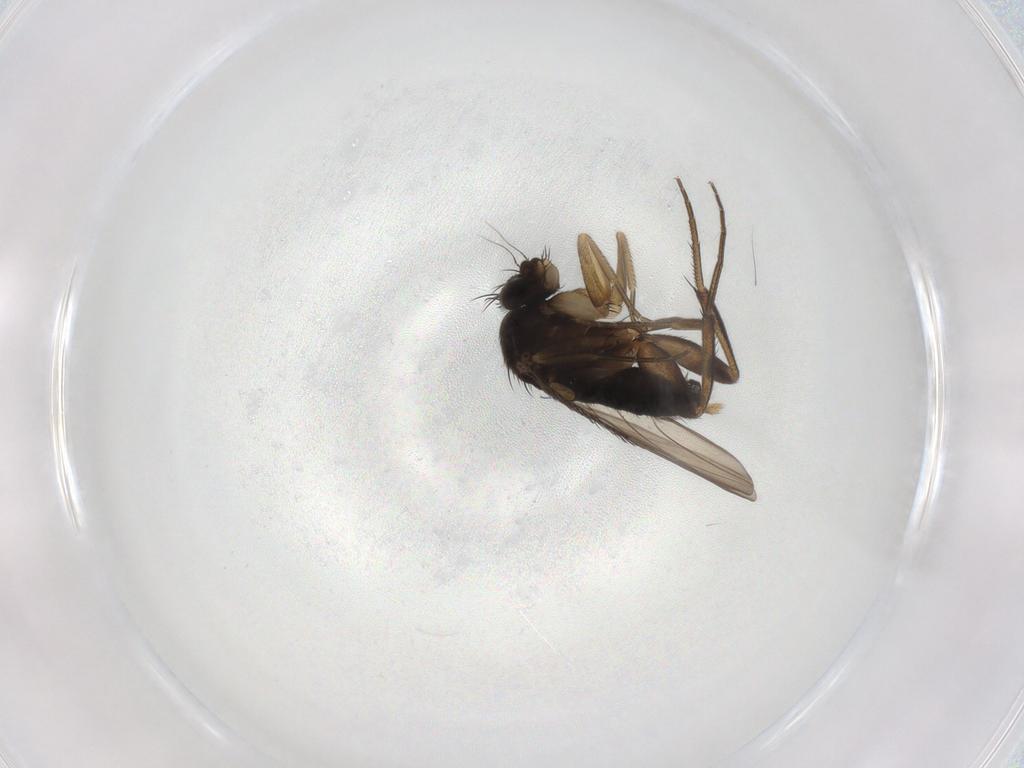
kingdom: Animalia
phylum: Arthropoda
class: Insecta
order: Diptera
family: Phoridae
